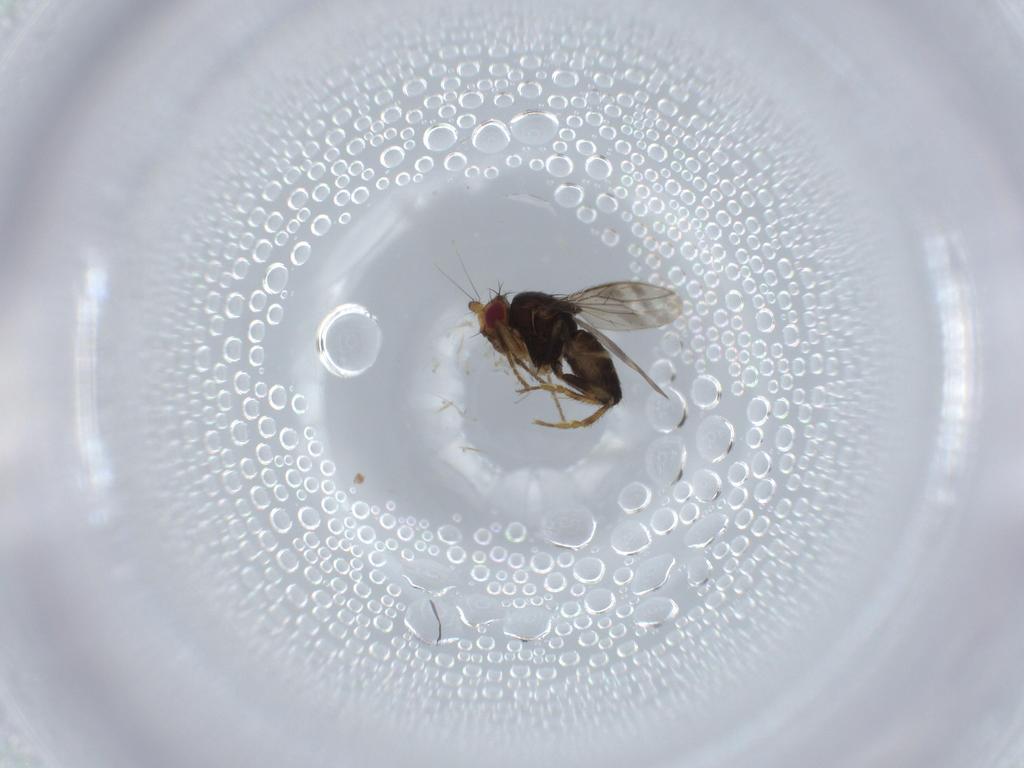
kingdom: Animalia
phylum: Arthropoda
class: Insecta
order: Diptera
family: Sphaeroceridae
